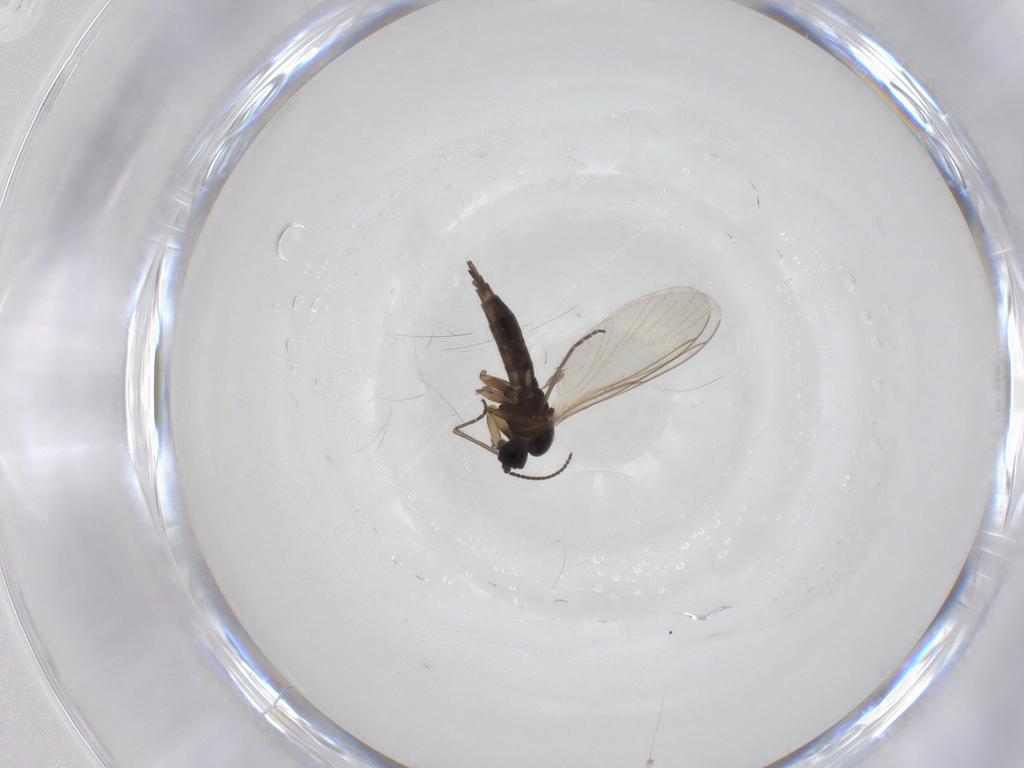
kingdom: Animalia
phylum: Arthropoda
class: Insecta
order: Diptera
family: Sciaridae
